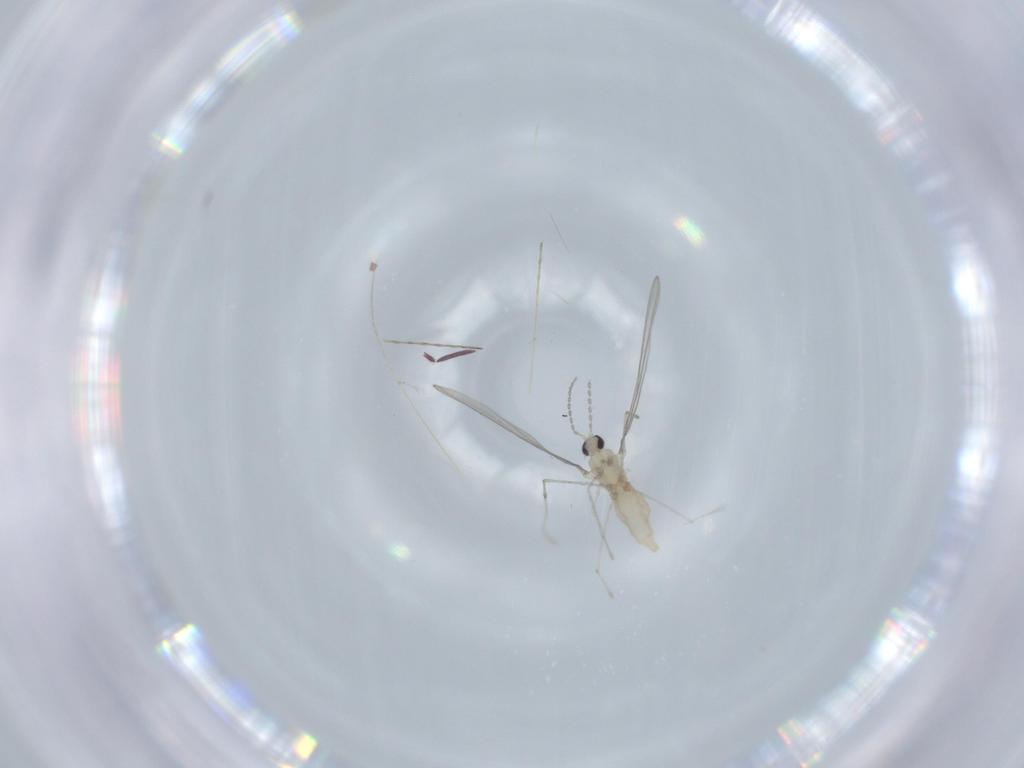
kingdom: Animalia
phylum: Arthropoda
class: Insecta
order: Diptera
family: Cecidomyiidae
